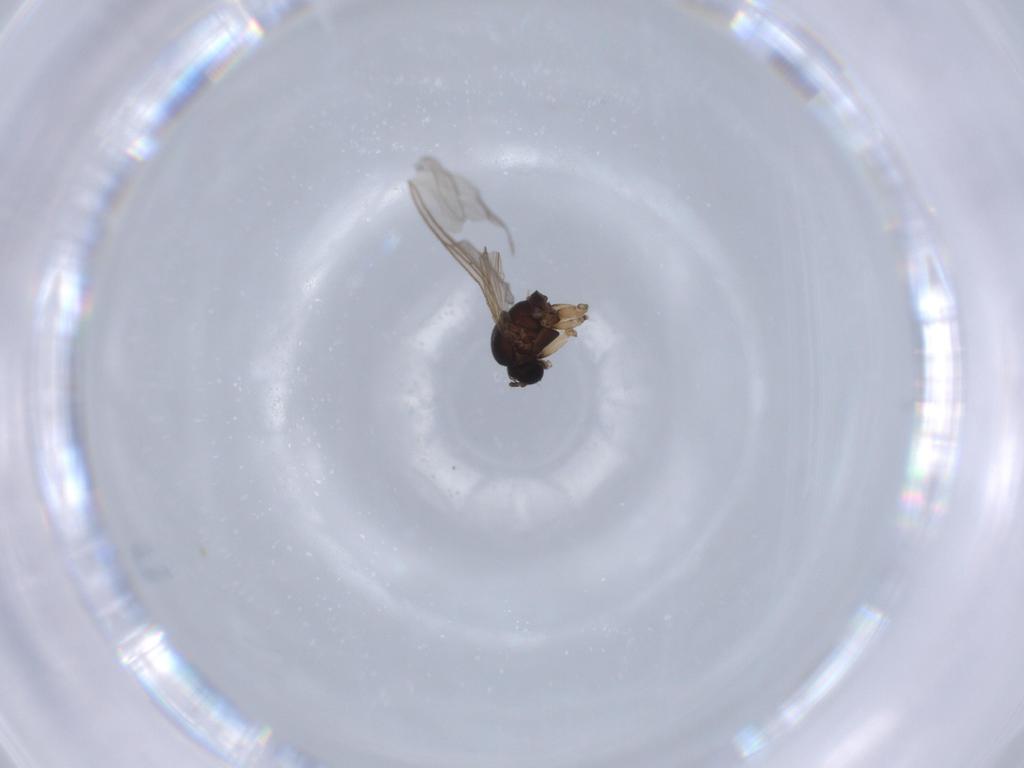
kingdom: Animalia
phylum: Arthropoda
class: Insecta
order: Diptera
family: Sciaridae
